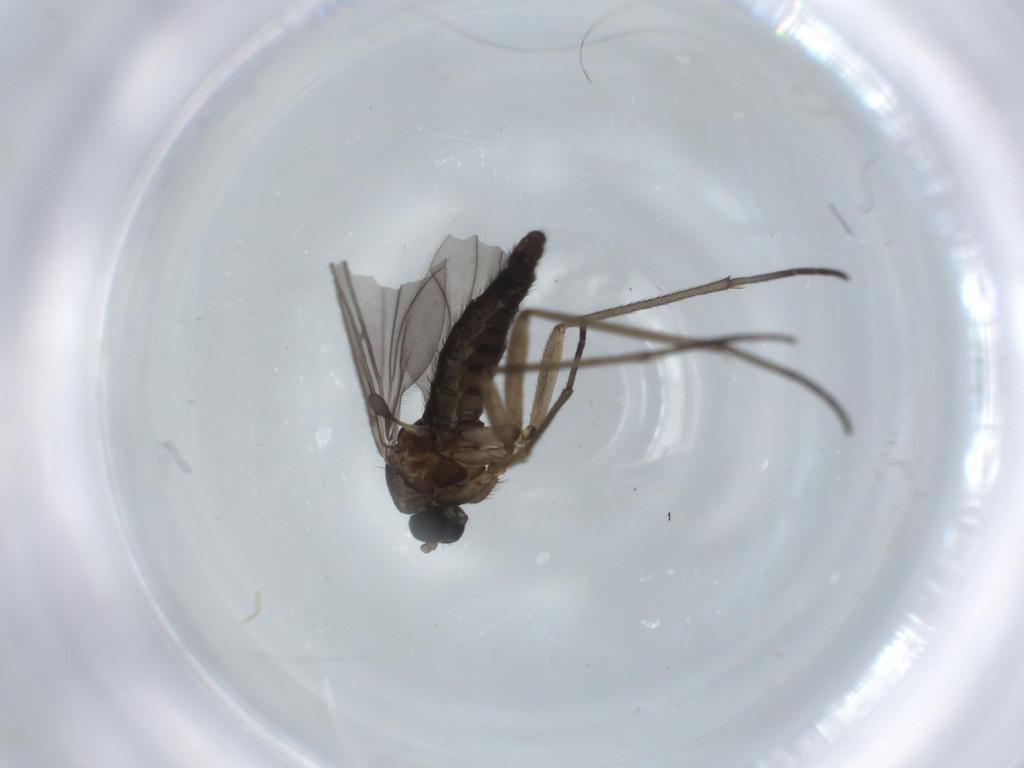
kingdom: Animalia
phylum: Arthropoda
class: Insecta
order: Diptera
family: Sciaridae
